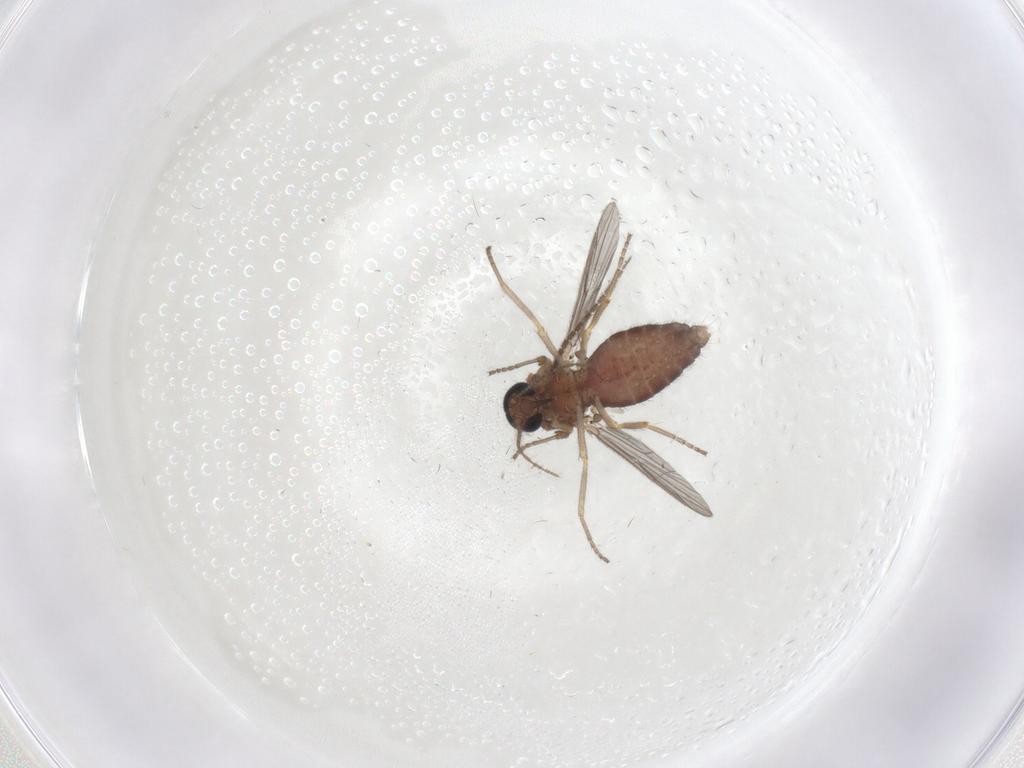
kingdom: Animalia
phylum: Arthropoda
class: Insecta
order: Diptera
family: Ceratopogonidae
